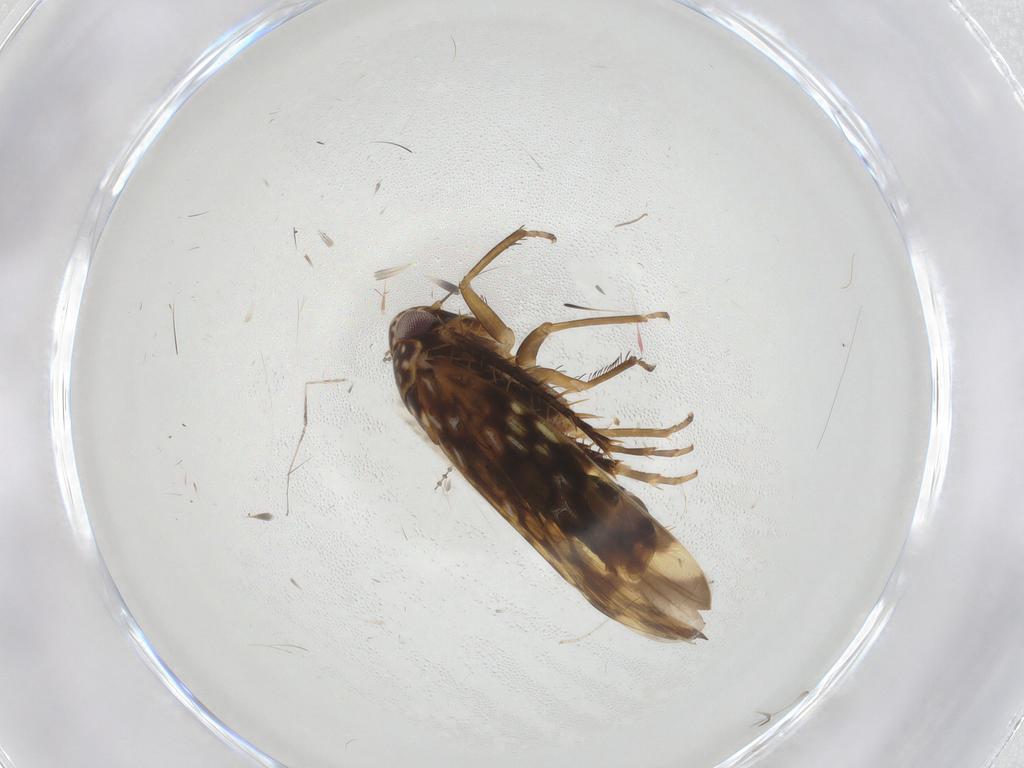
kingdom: Animalia
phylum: Arthropoda
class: Insecta
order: Hemiptera
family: Cicadellidae
